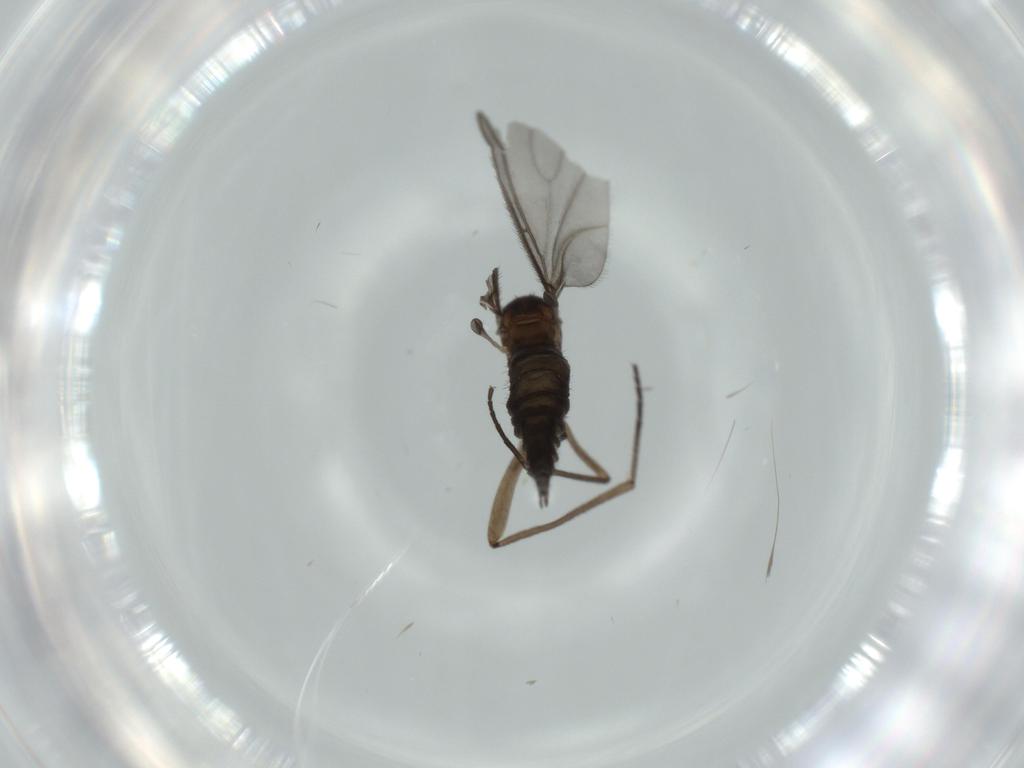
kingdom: Animalia
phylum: Arthropoda
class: Insecta
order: Diptera
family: Sciaridae
